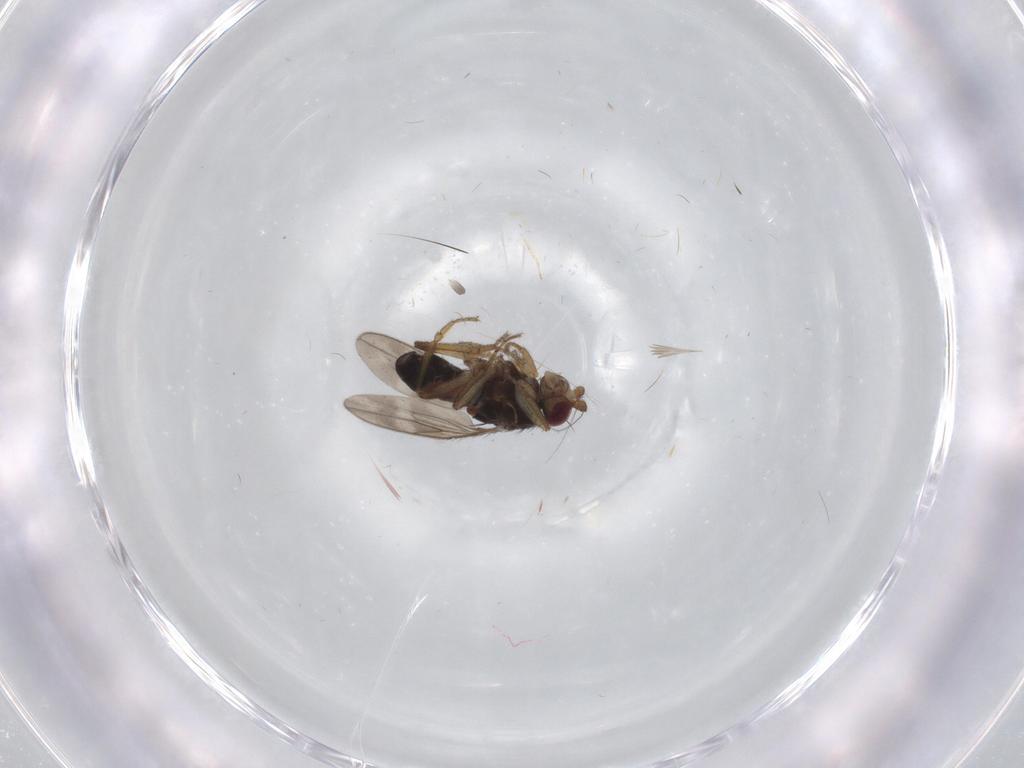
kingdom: Animalia
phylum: Arthropoda
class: Insecta
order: Diptera
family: Sphaeroceridae
